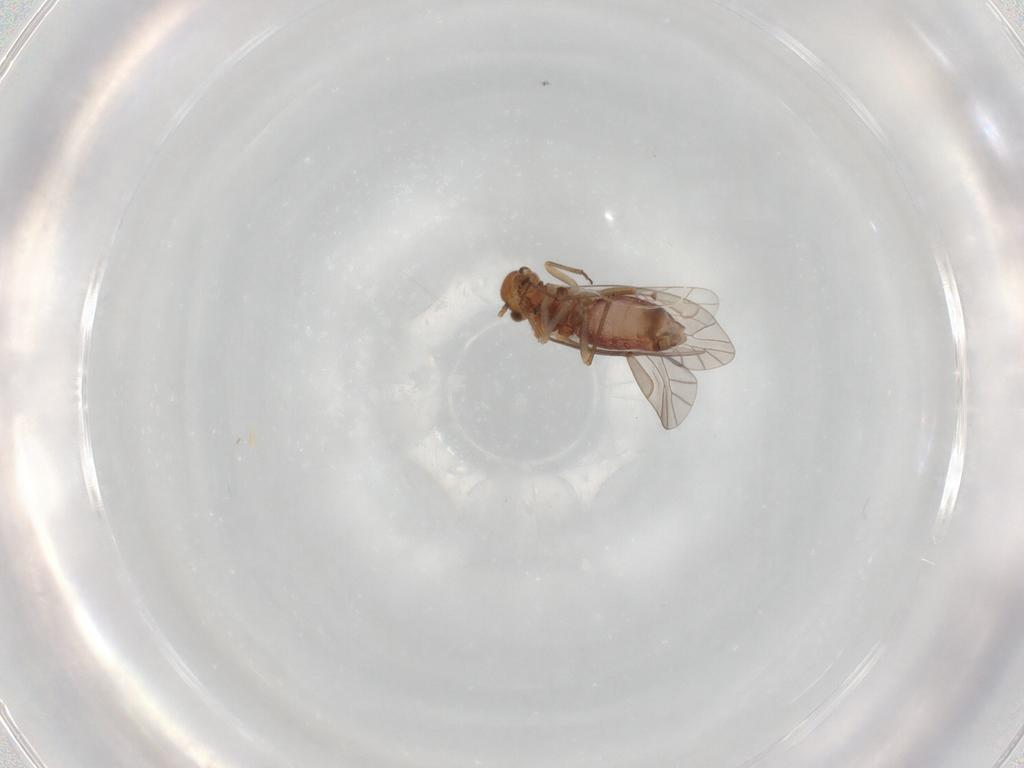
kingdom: Animalia
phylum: Arthropoda
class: Insecta
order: Psocodea
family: Lachesillidae
